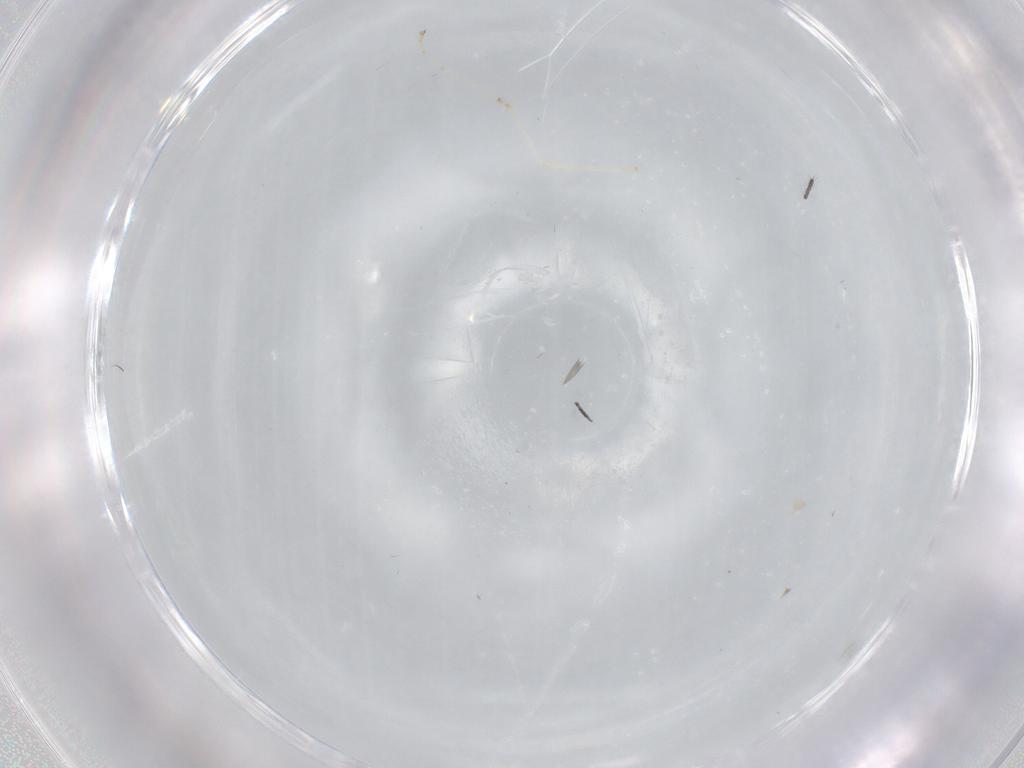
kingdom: Animalia
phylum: Arthropoda
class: Insecta
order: Diptera
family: Cecidomyiidae
